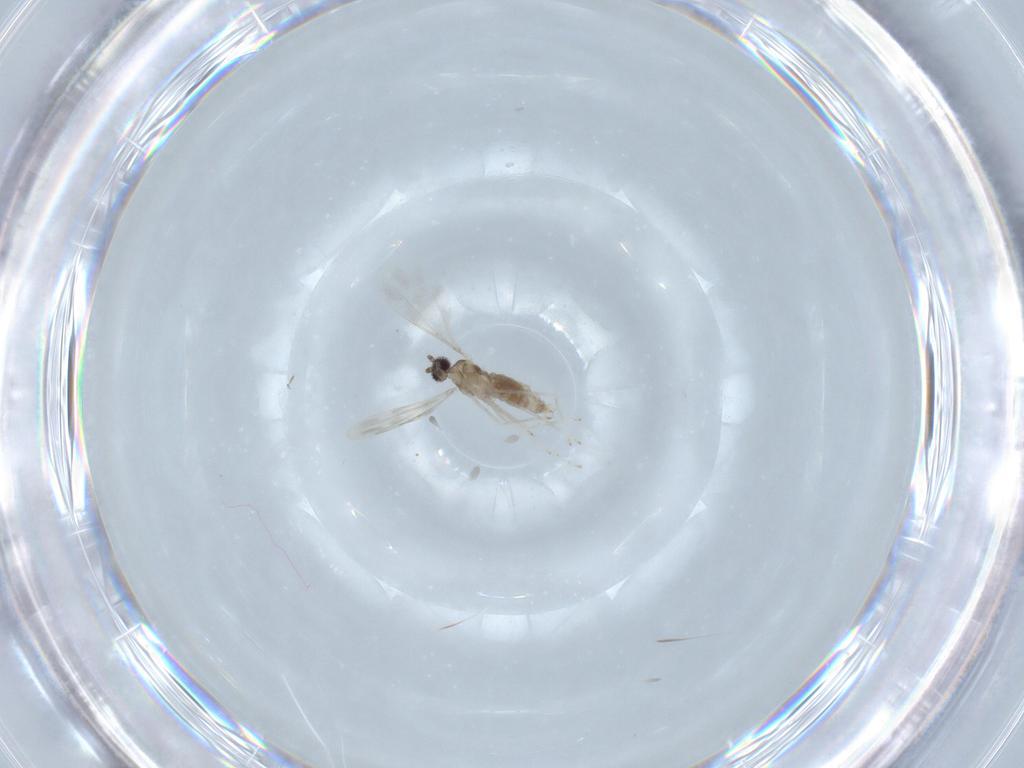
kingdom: Animalia
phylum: Arthropoda
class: Insecta
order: Diptera
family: Cecidomyiidae
